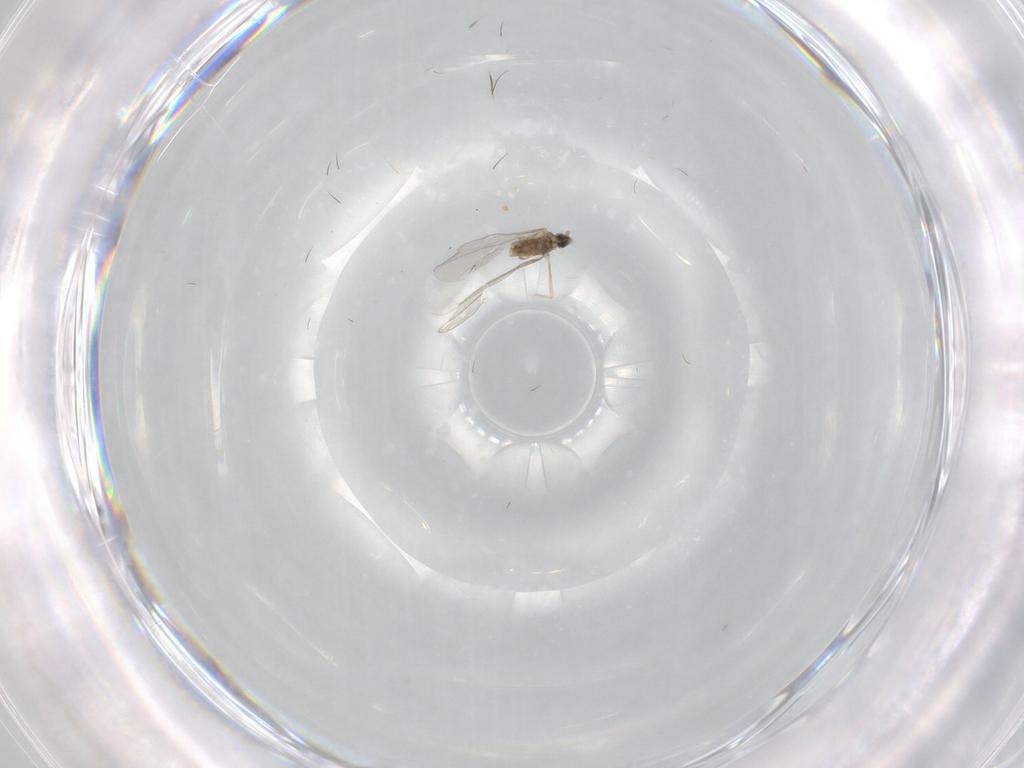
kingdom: Animalia
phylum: Arthropoda
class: Insecta
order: Diptera
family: Cecidomyiidae
